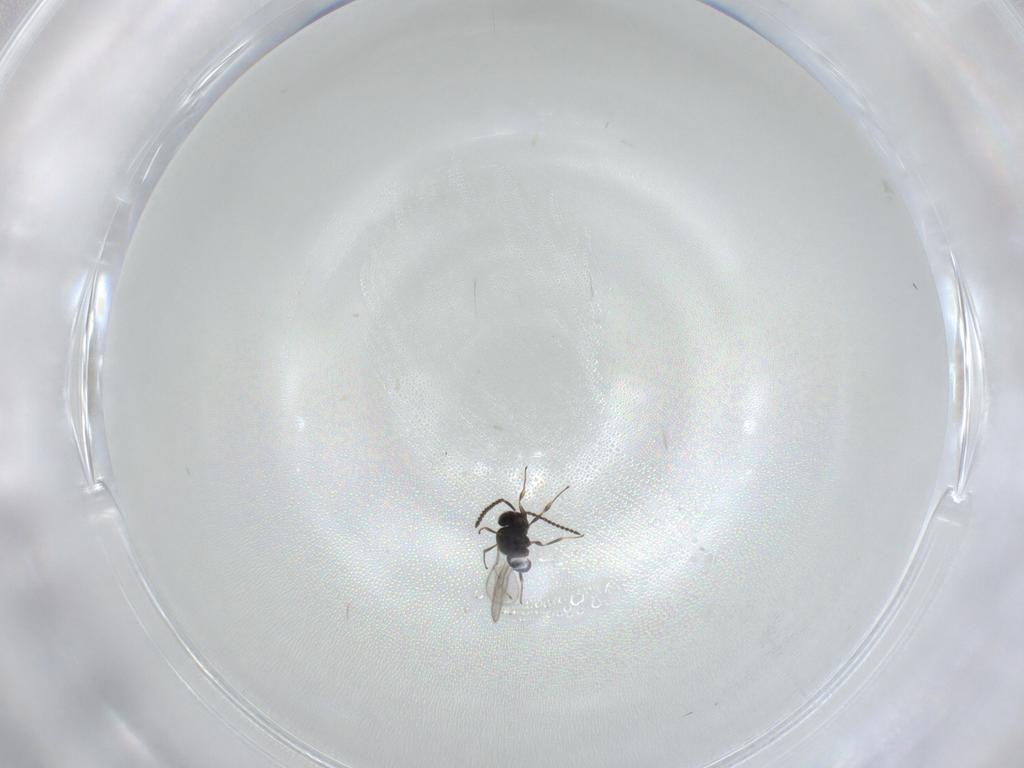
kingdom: Animalia
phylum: Arthropoda
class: Insecta
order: Hymenoptera
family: Scelionidae
